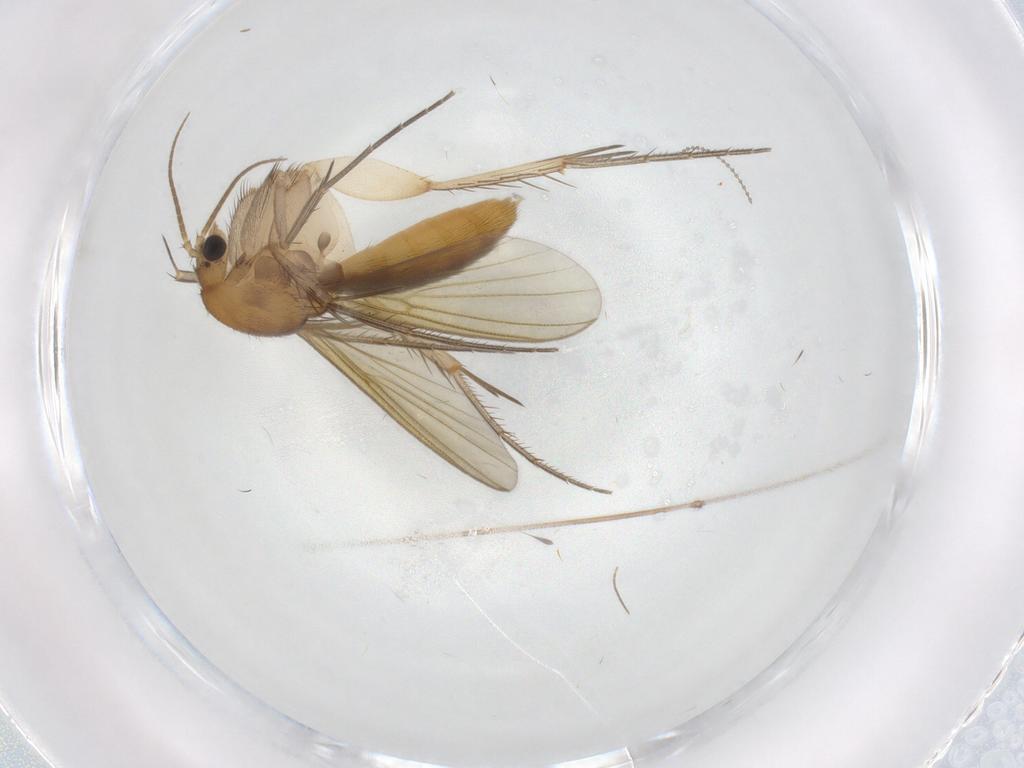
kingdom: Animalia
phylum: Arthropoda
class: Insecta
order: Diptera
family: Mycetophilidae
